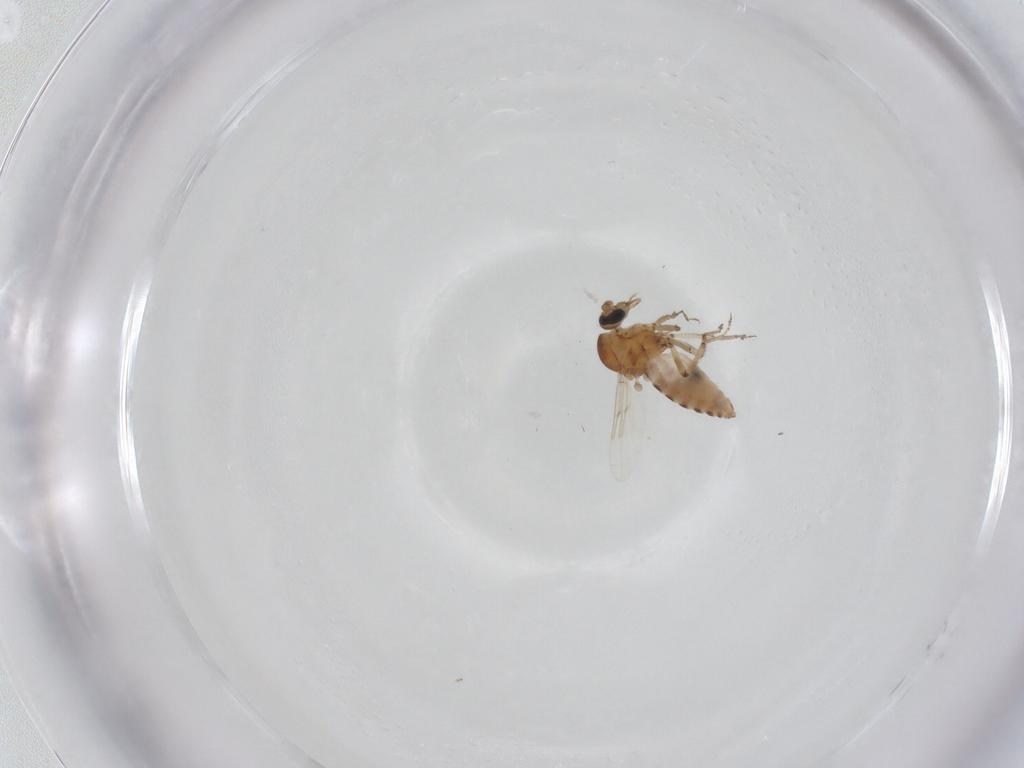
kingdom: Animalia
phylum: Arthropoda
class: Insecta
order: Diptera
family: Ceratopogonidae
